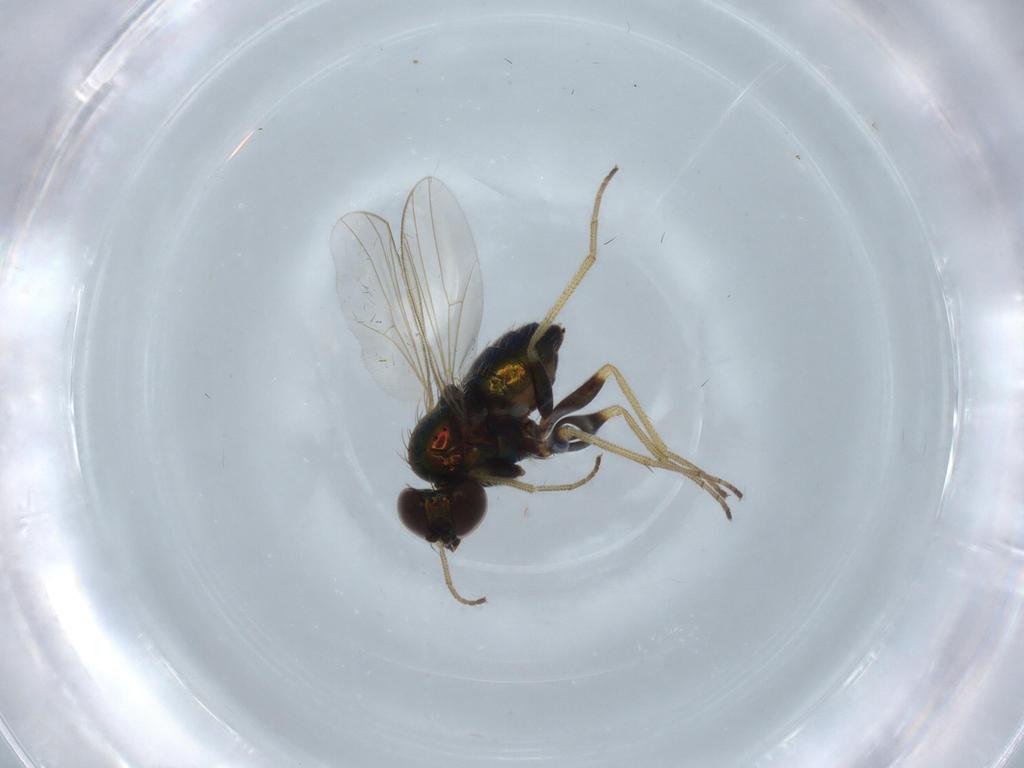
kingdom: Animalia
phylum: Arthropoda
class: Insecta
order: Diptera
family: Dolichopodidae
